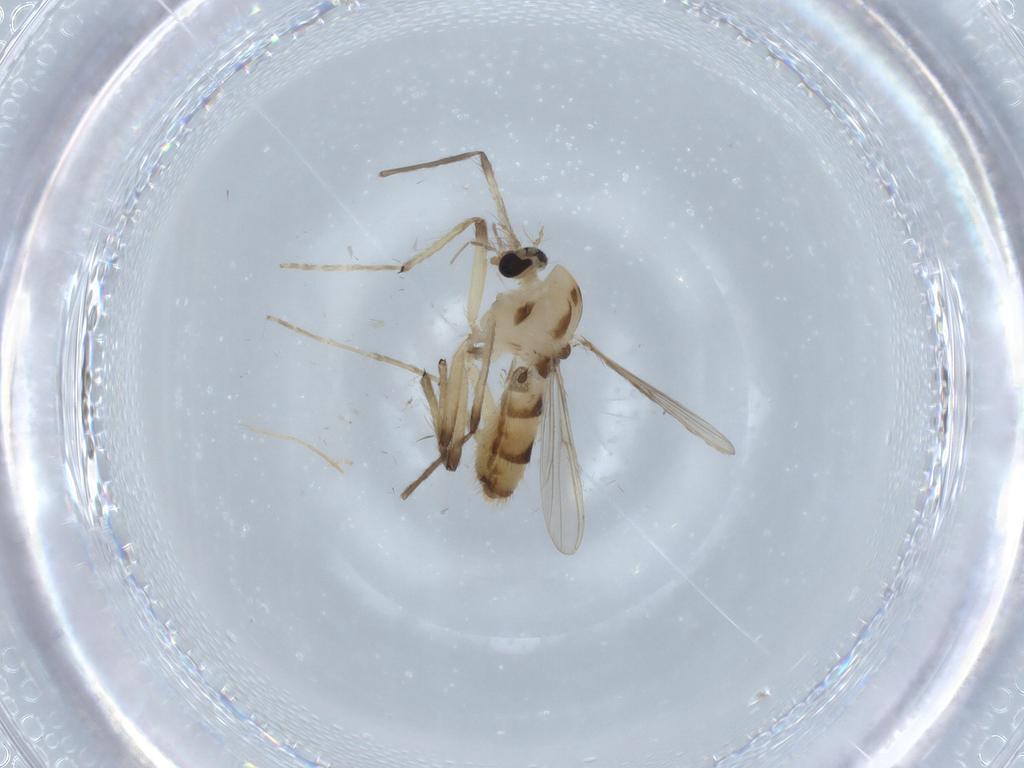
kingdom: Animalia
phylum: Arthropoda
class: Insecta
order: Diptera
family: Chironomidae
